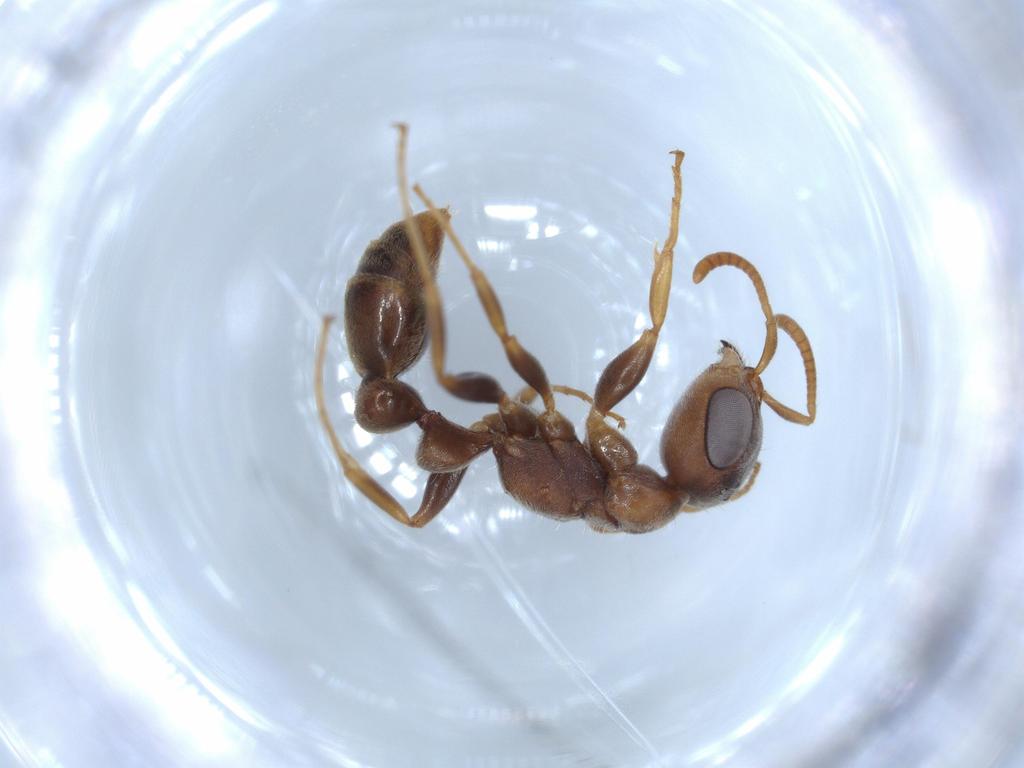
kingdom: Animalia
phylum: Arthropoda
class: Insecta
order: Hymenoptera
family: Formicidae
